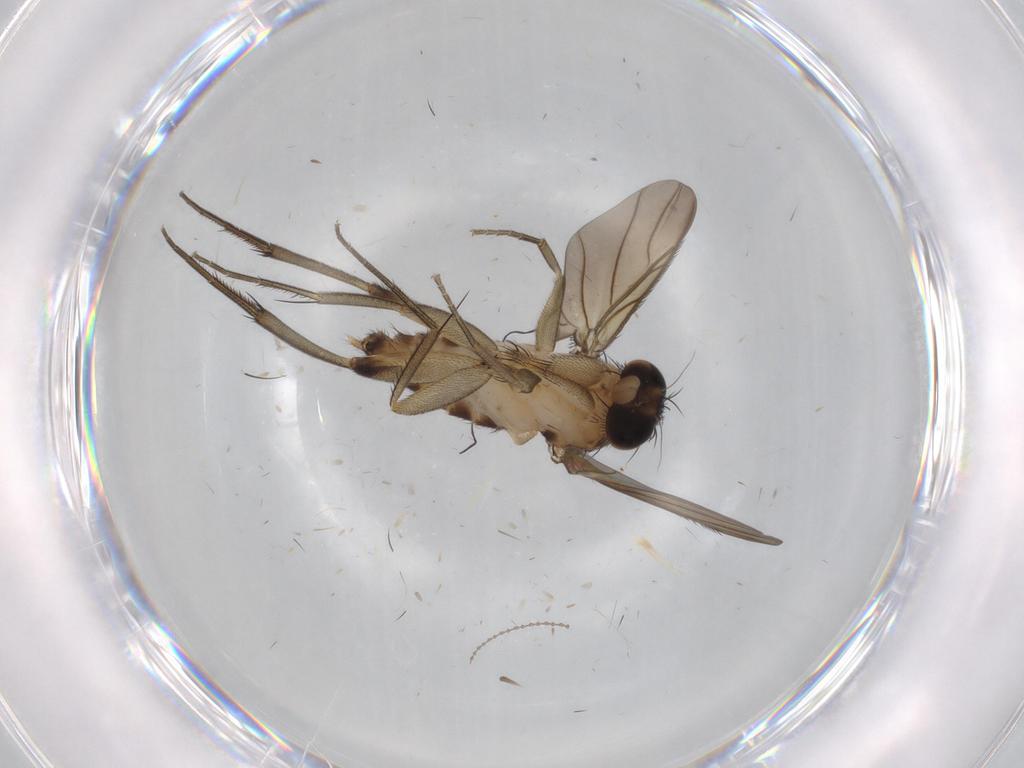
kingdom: Animalia
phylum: Arthropoda
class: Insecta
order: Diptera
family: Phoridae
